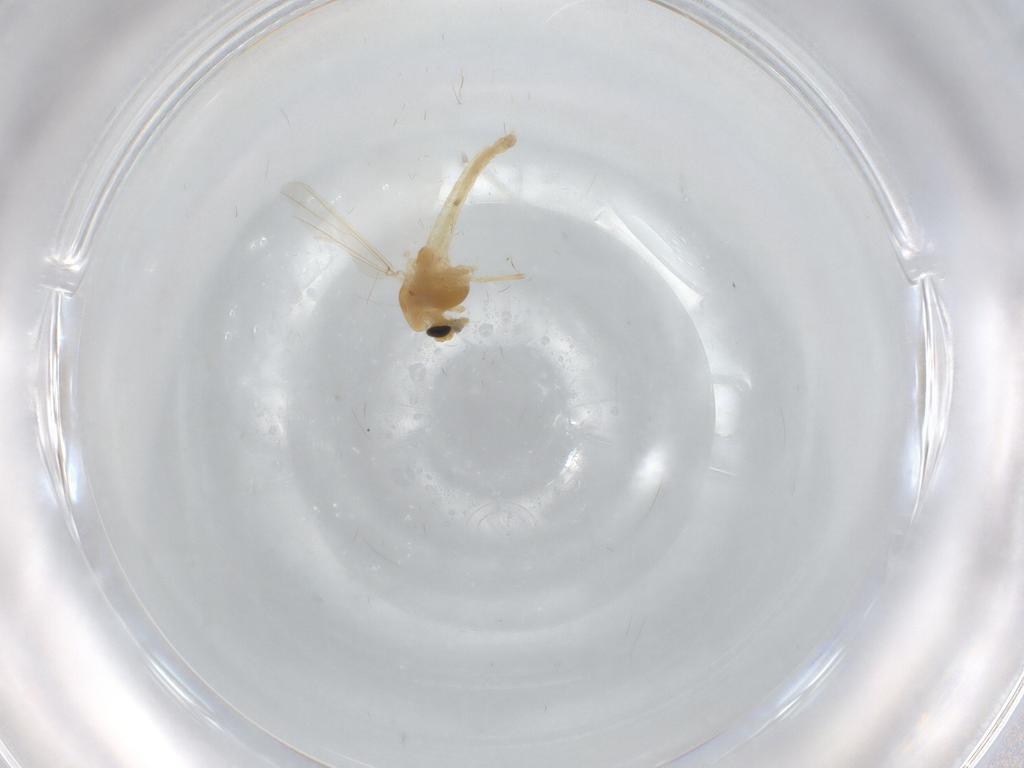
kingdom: Animalia
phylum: Arthropoda
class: Insecta
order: Diptera
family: Chironomidae
